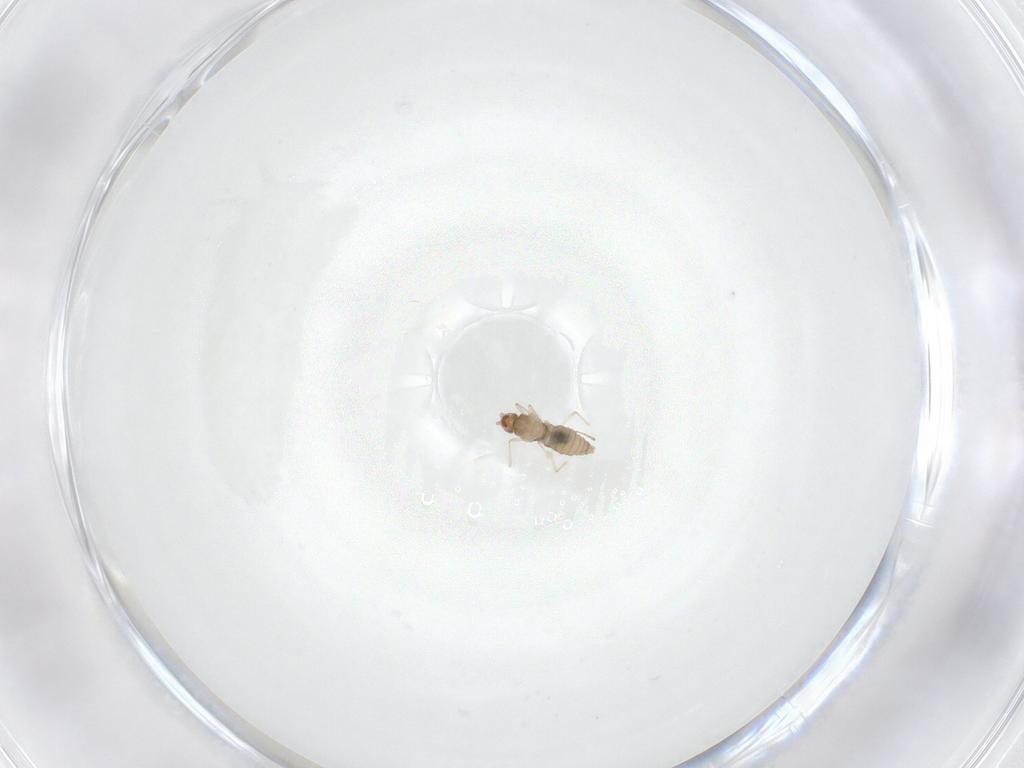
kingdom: Animalia
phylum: Arthropoda
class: Insecta
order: Diptera
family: Cecidomyiidae
